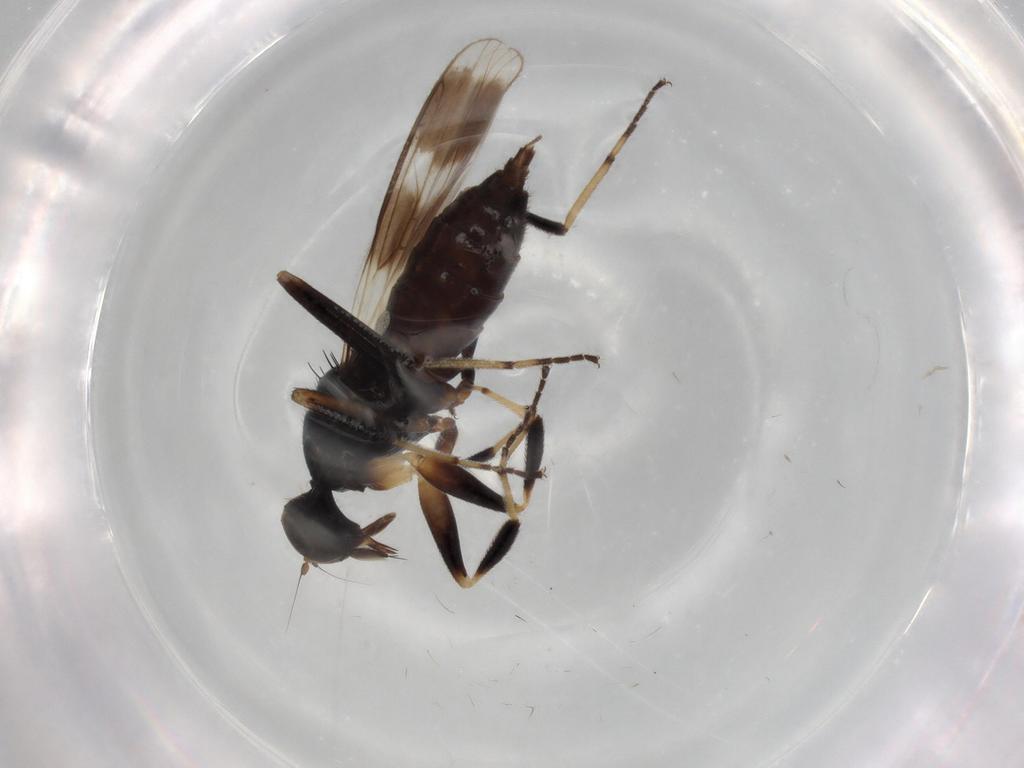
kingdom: Animalia
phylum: Arthropoda
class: Insecta
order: Diptera
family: Hybotidae
